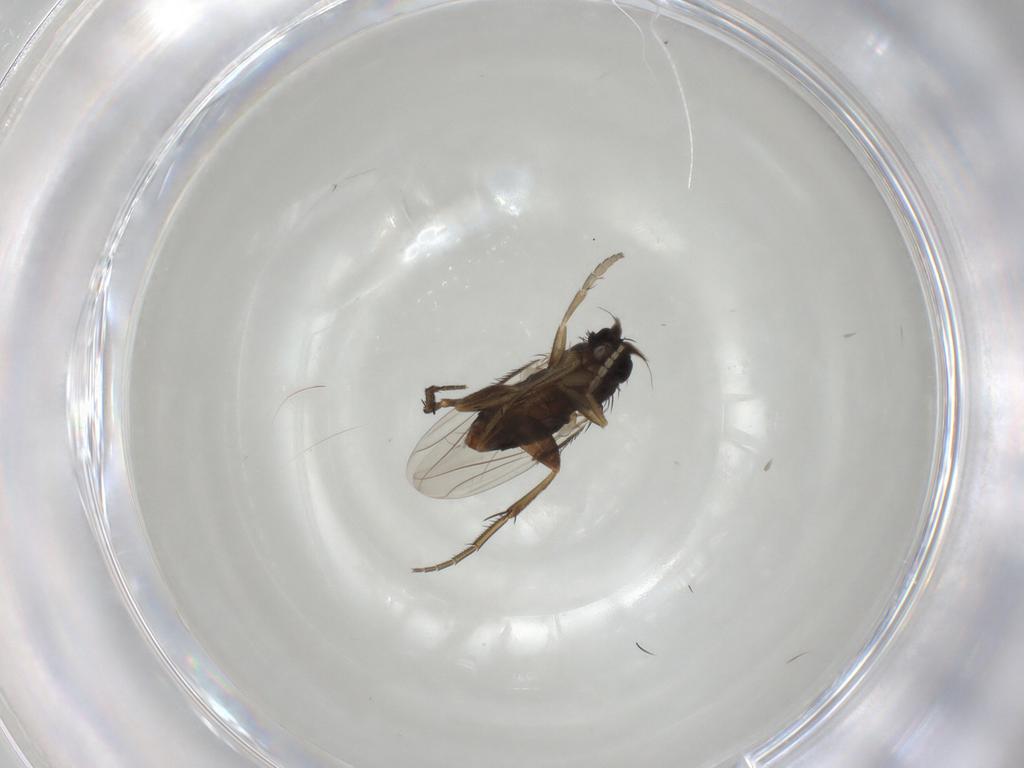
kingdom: Animalia
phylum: Arthropoda
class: Insecta
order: Diptera
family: Phoridae
